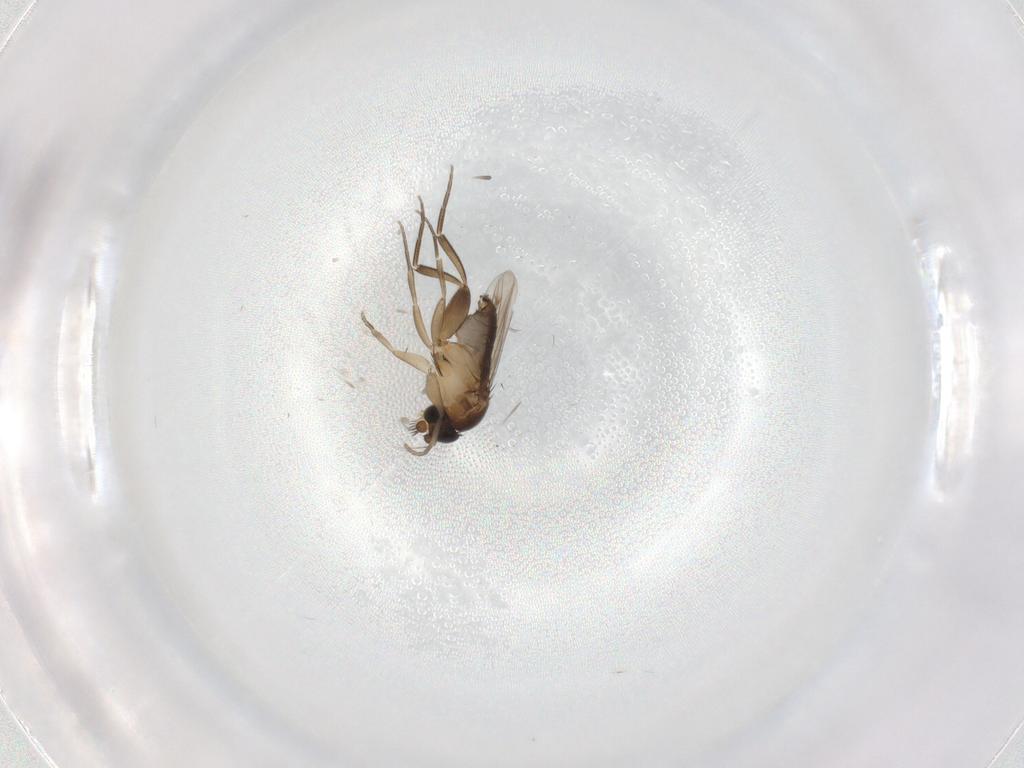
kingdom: Animalia
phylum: Arthropoda
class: Insecta
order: Diptera
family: Phoridae
